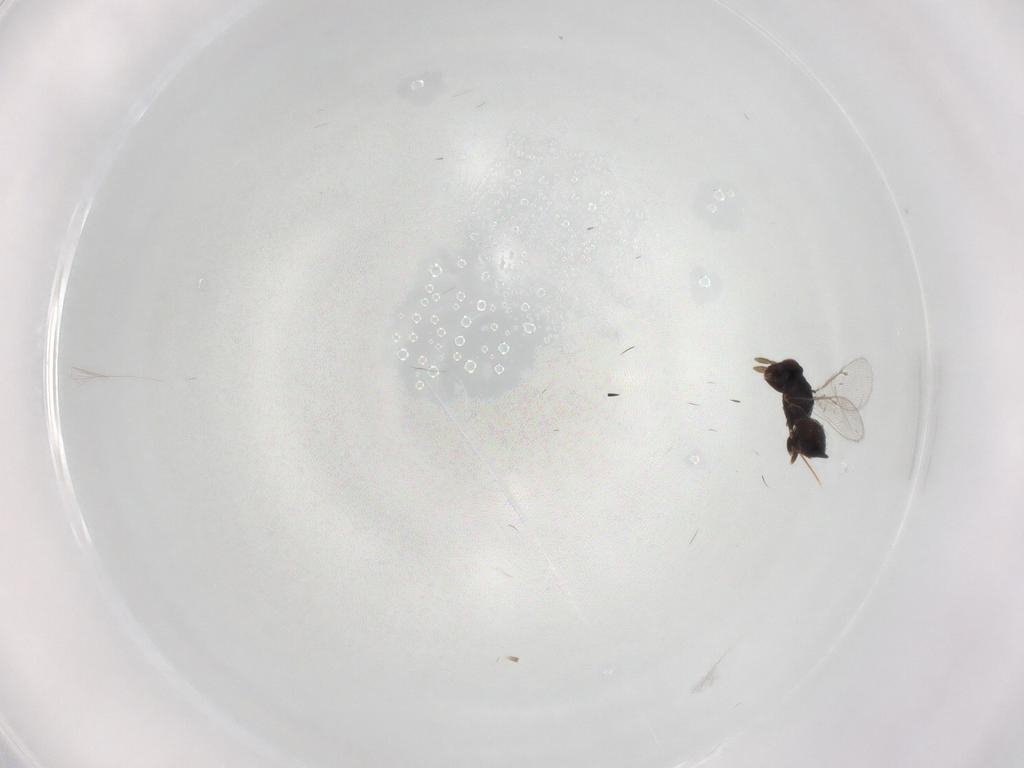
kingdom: Animalia
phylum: Arthropoda
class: Insecta
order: Hymenoptera
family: Eulophidae
